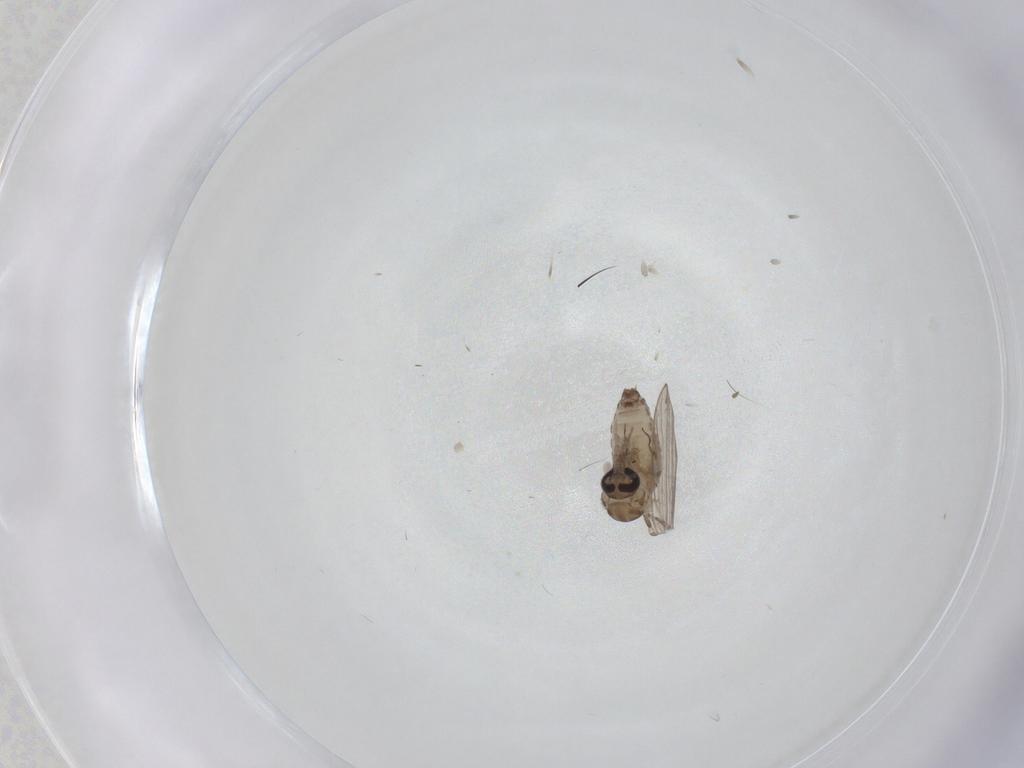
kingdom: Animalia
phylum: Arthropoda
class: Insecta
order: Diptera
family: Psychodidae
